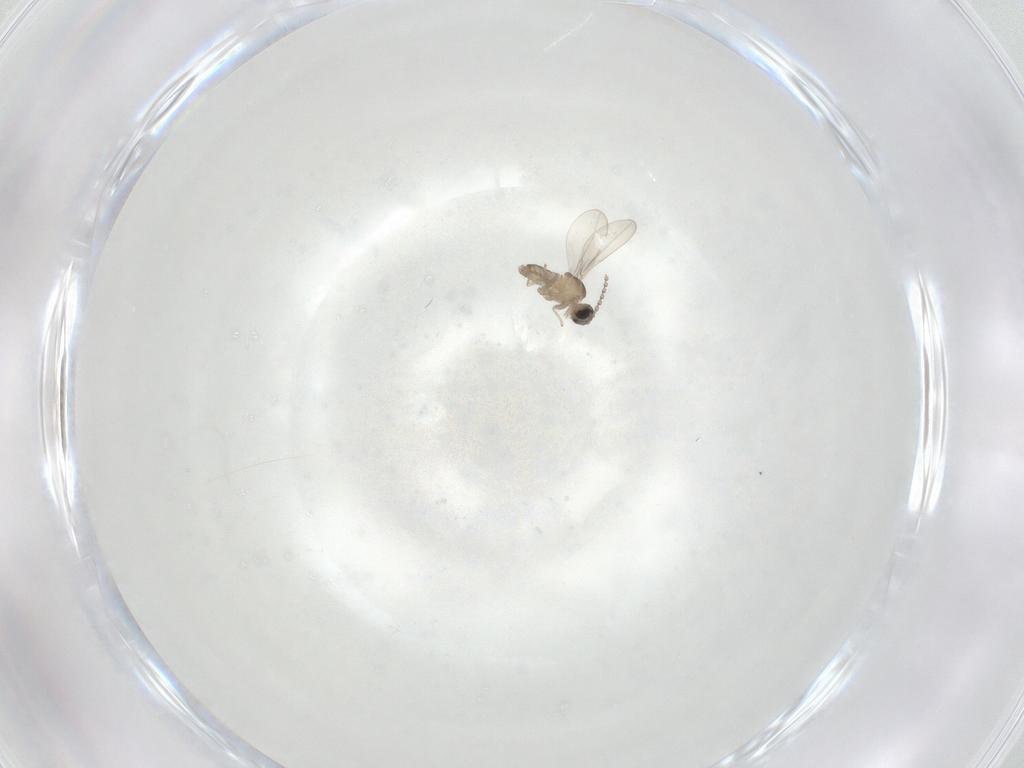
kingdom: Animalia
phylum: Arthropoda
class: Insecta
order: Diptera
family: Cecidomyiidae
